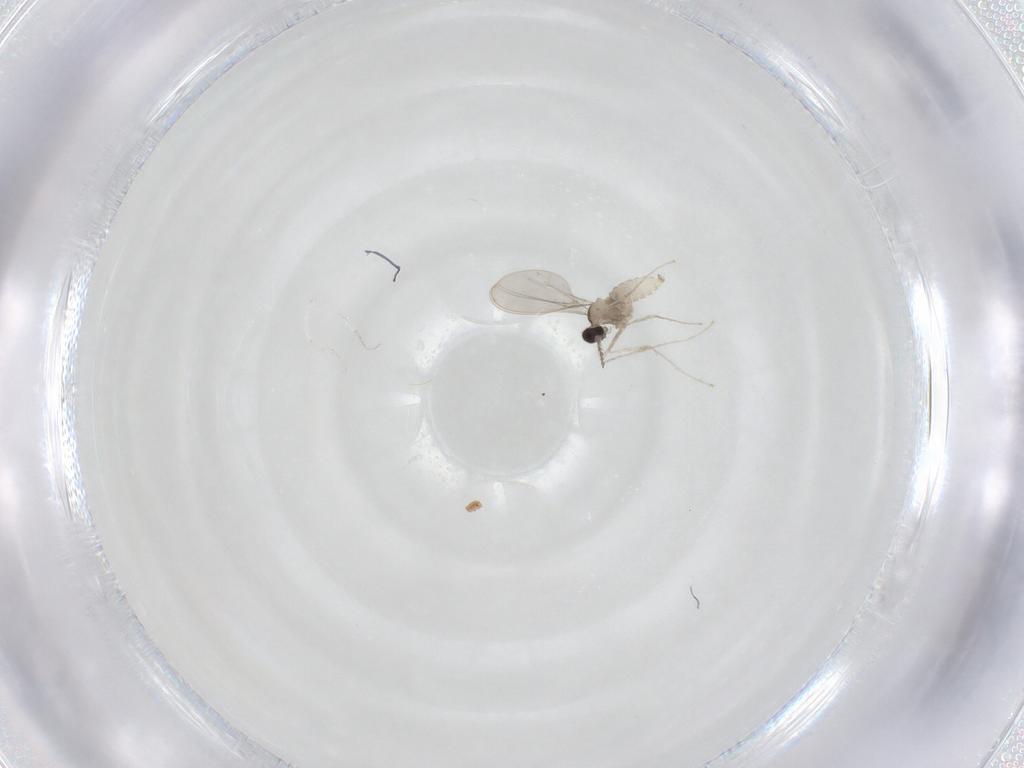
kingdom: Animalia
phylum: Arthropoda
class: Insecta
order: Diptera
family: Cecidomyiidae
